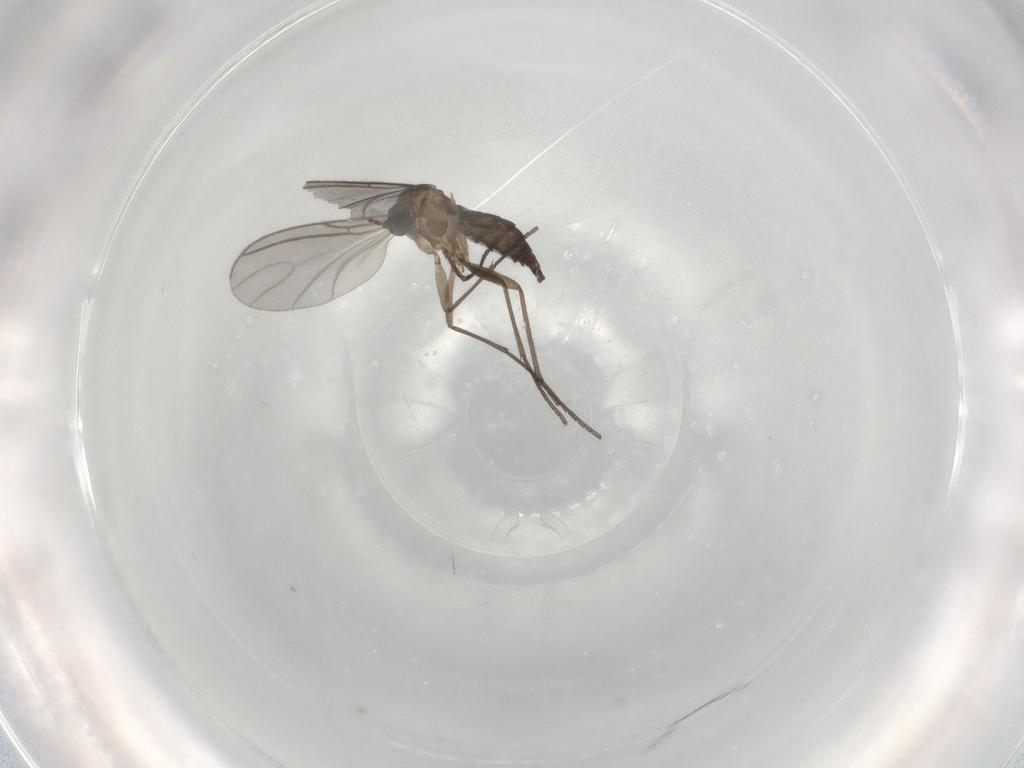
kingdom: Animalia
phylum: Arthropoda
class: Insecta
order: Diptera
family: Sciaridae
